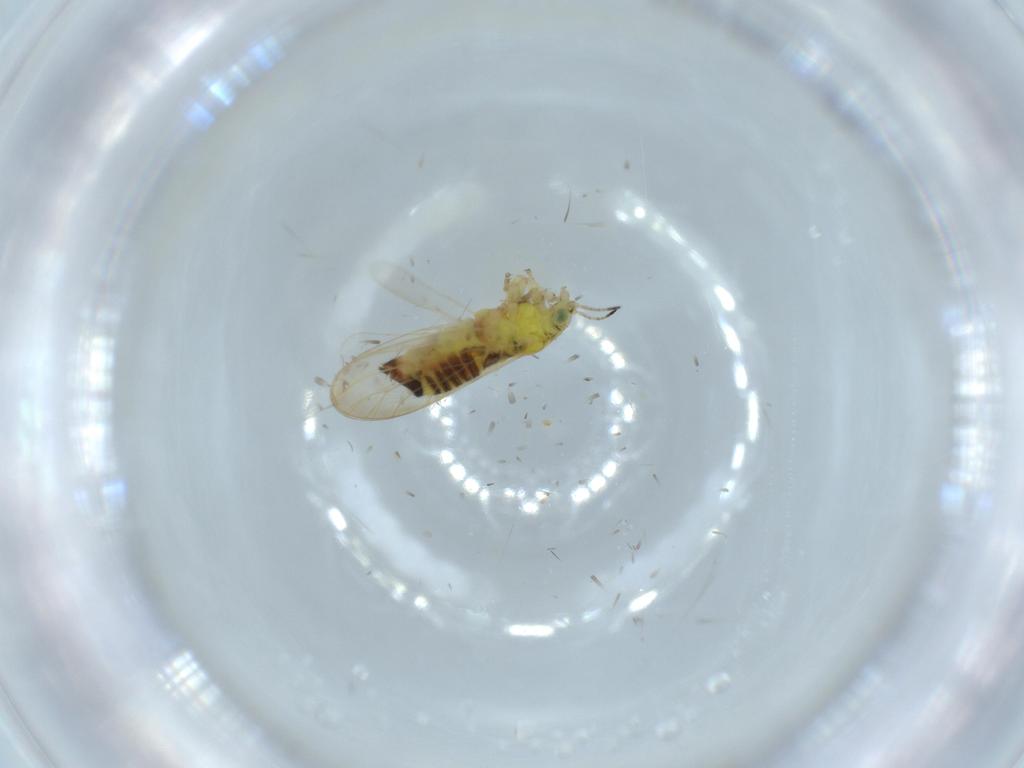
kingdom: Animalia
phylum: Arthropoda
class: Insecta
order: Hemiptera
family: Aphalaridae
